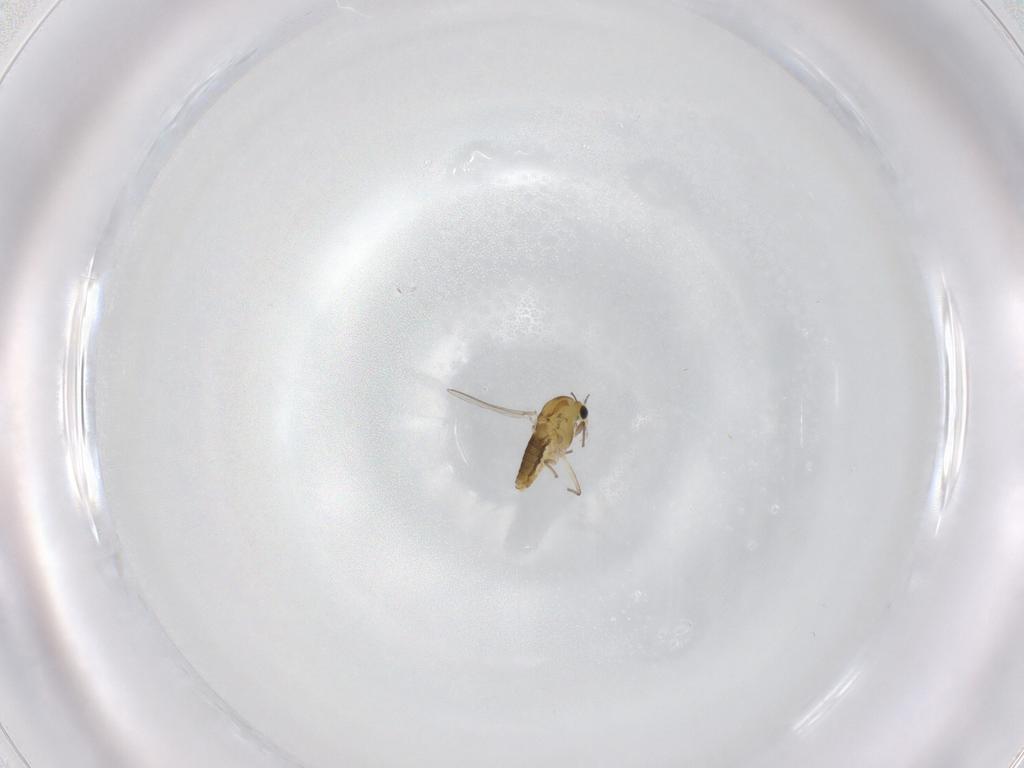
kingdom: Animalia
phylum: Arthropoda
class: Insecta
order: Diptera
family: Chironomidae
